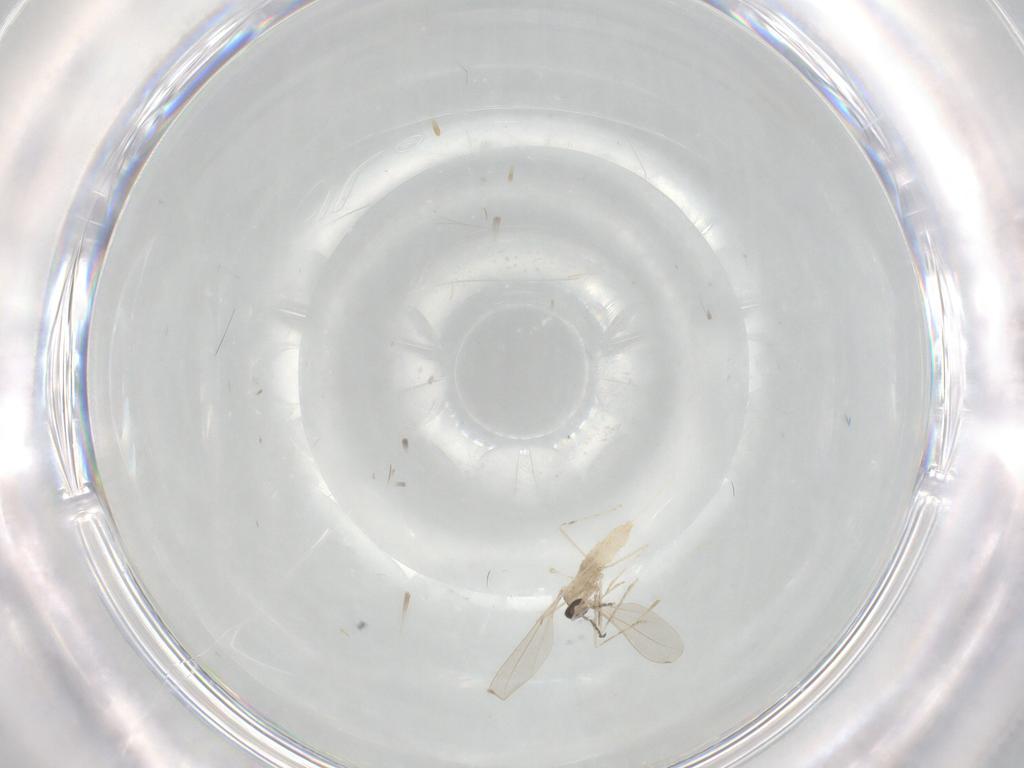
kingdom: Animalia
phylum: Arthropoda
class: Insecta
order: Diptera
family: Cecidomyiidae
